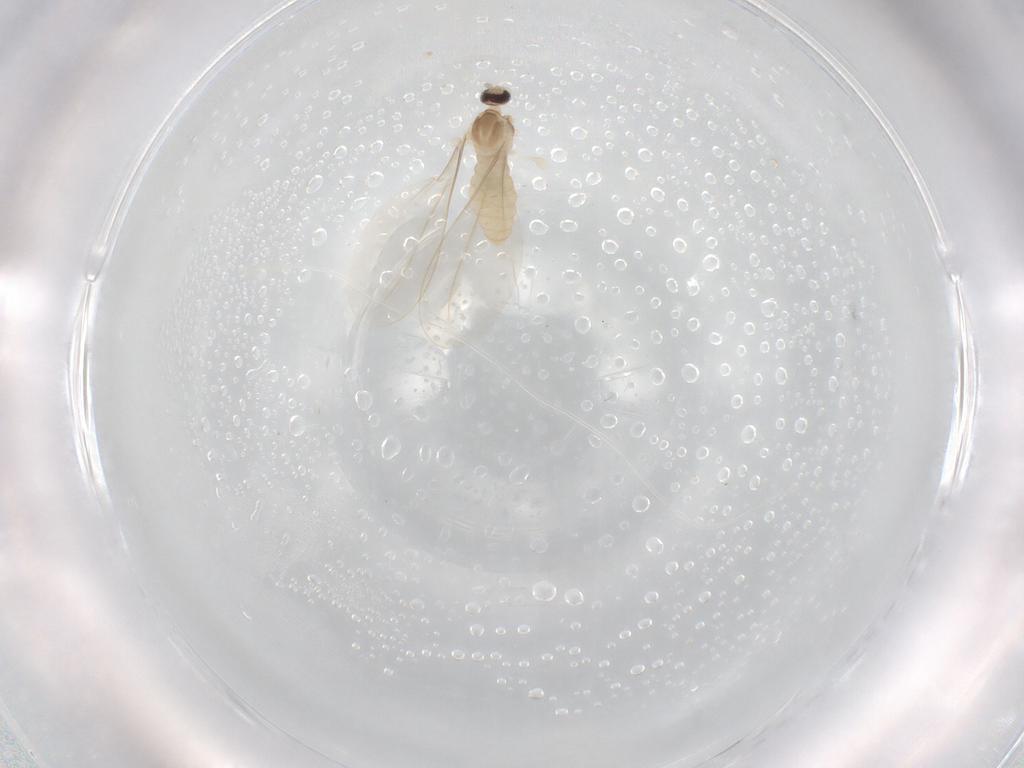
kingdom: Animalia
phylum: Arthropoda
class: Insecta
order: Diptera
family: Cecidomyiidae
